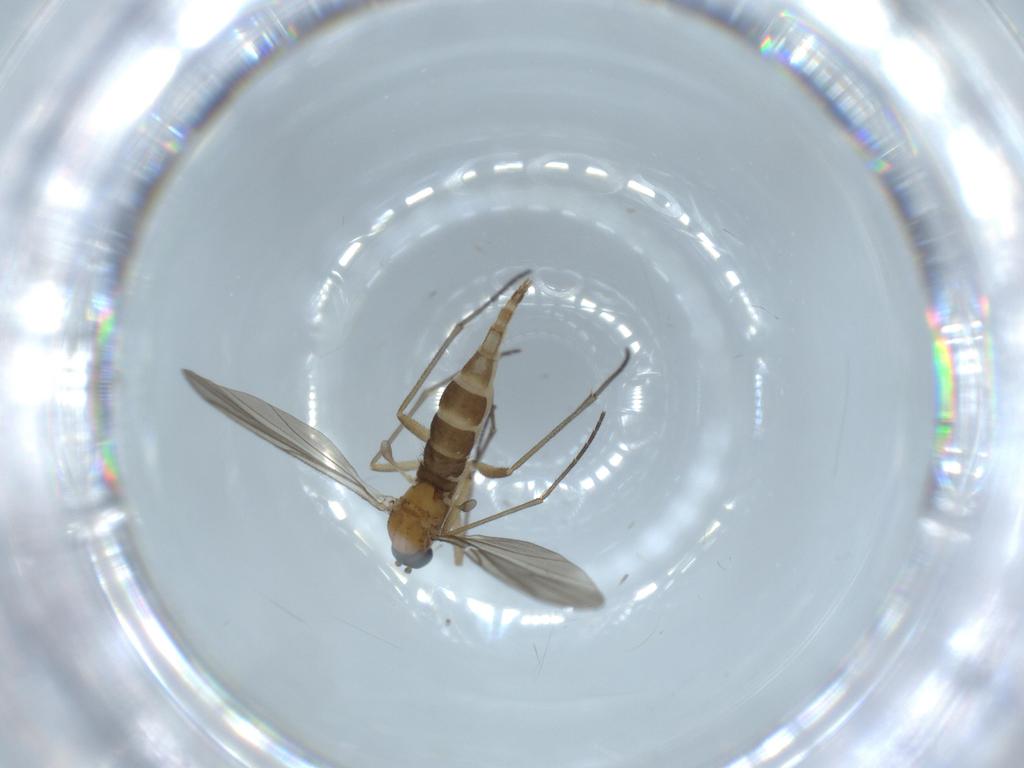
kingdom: Animalia
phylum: Arthropoda
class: Insecta
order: Diptera
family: Sciaridae
